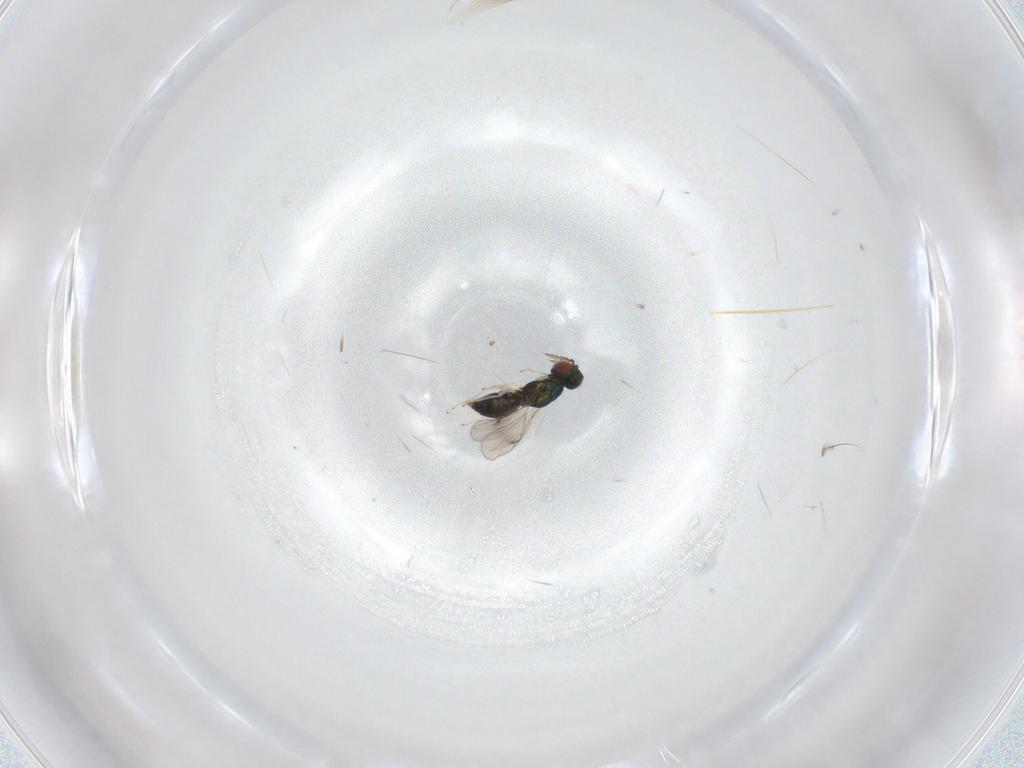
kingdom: Animalia
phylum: Arthropoda
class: Insecta
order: Hymenoptera
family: Eulophidae
